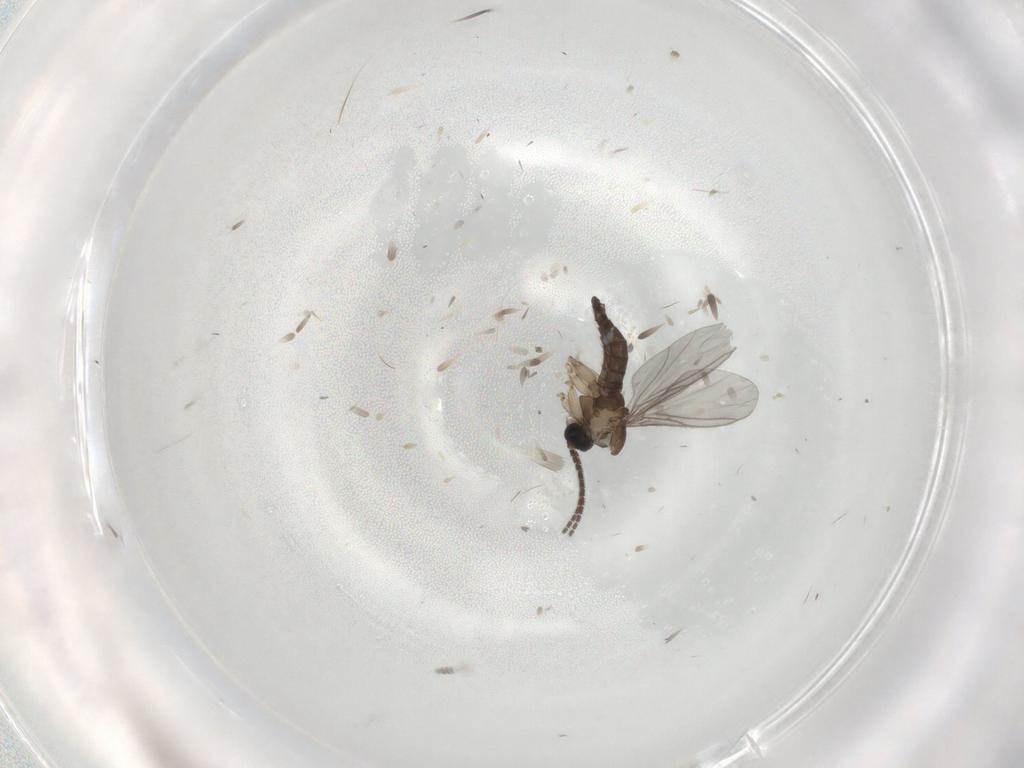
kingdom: Animalia
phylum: Arthropoda
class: Insecta
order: Diptera
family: Sciaridae
